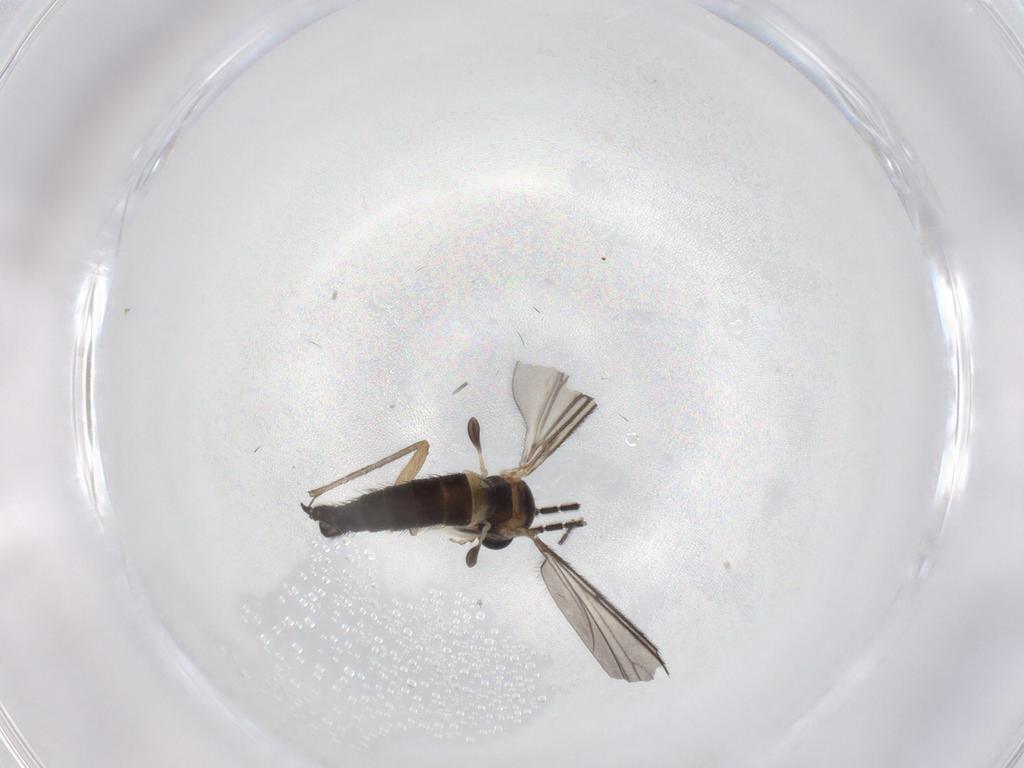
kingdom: Animalia
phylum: Arthropoda
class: Insecta
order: Diptera
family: Sciaridae
